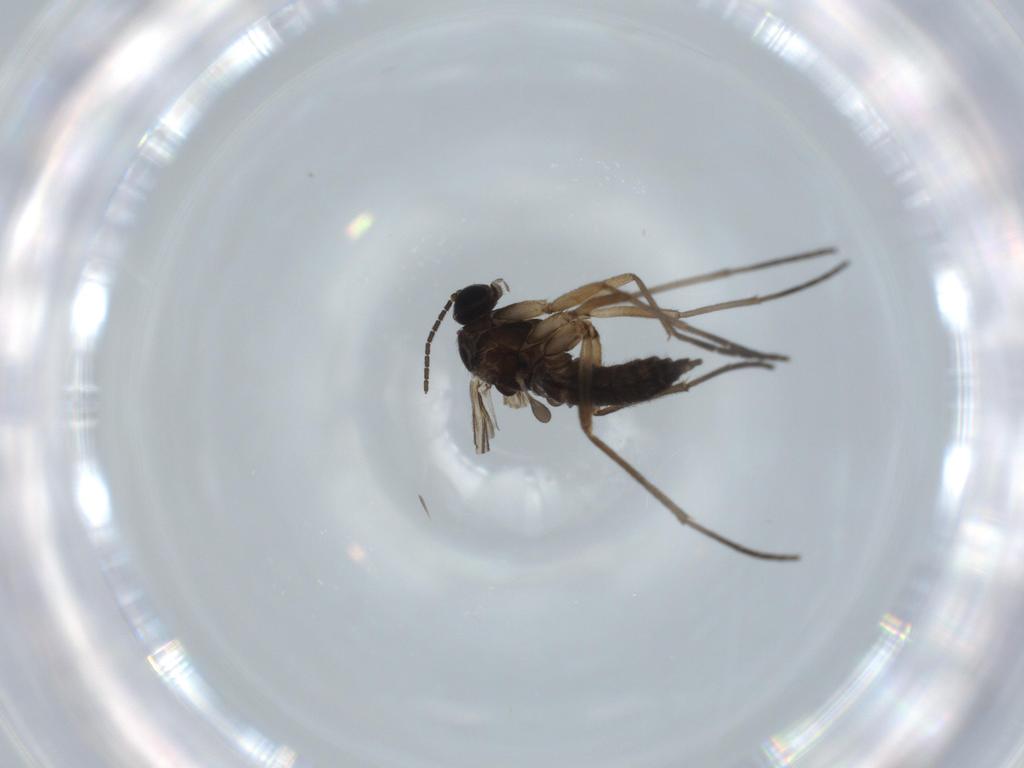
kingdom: Animalia
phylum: Arthropoda
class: Insecta
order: Diptera
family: Sciaridae
